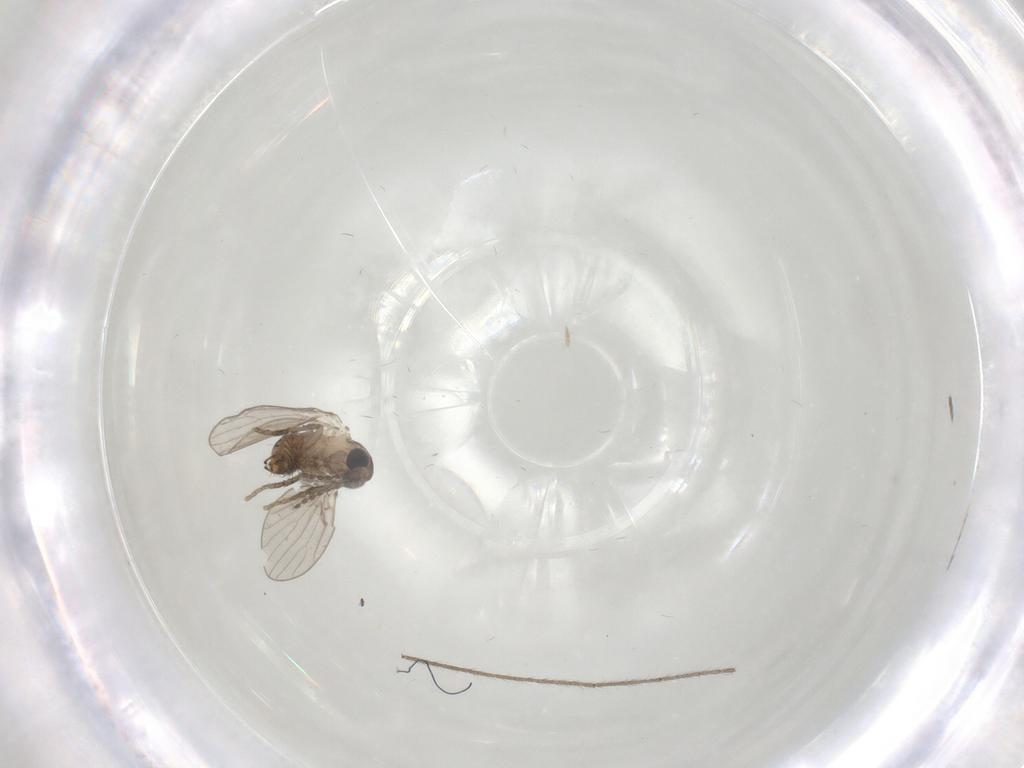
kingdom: Animalia
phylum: Arthropoda
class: Insecta
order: Diptera
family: Limoniidae
